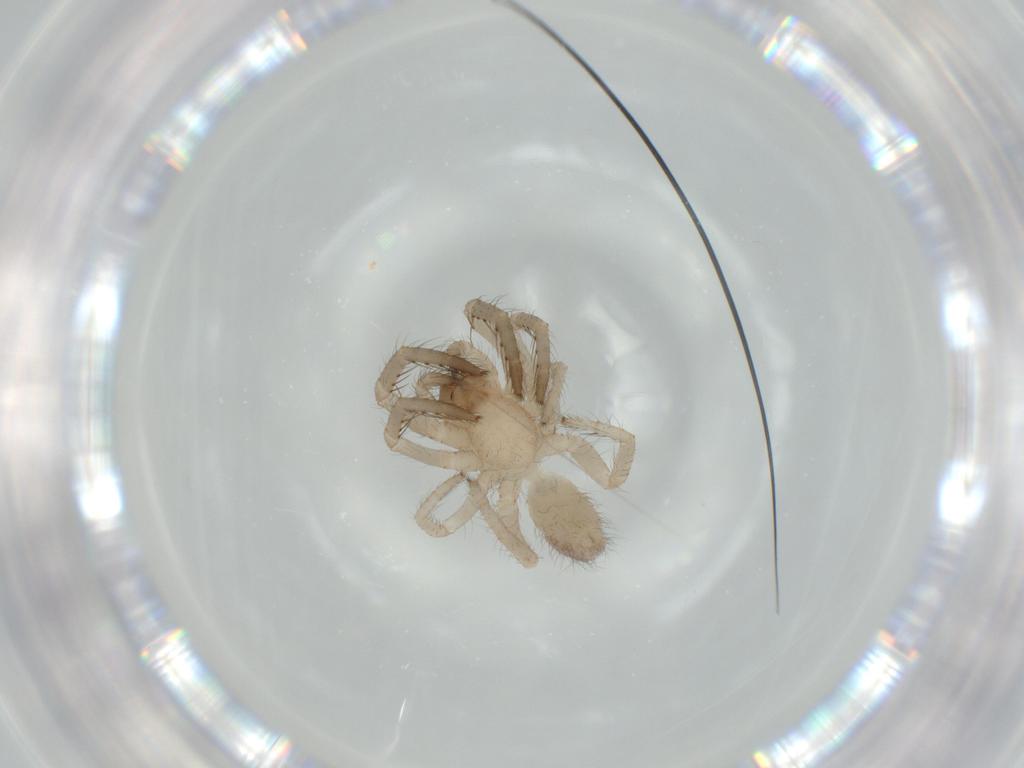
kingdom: Animalia
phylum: Arthropoda
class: Arachnida
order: Araneae
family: Segestriidae
